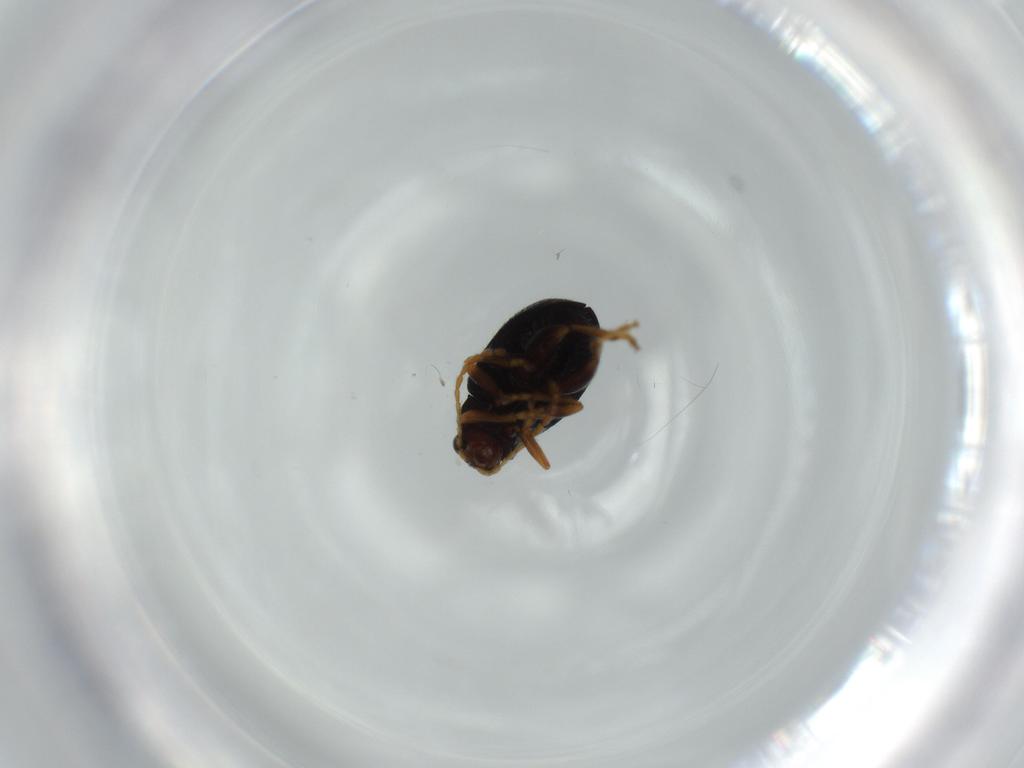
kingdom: Animalia
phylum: Arthropoda
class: Insecta
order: Coleoptera
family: Chrysomelidae
